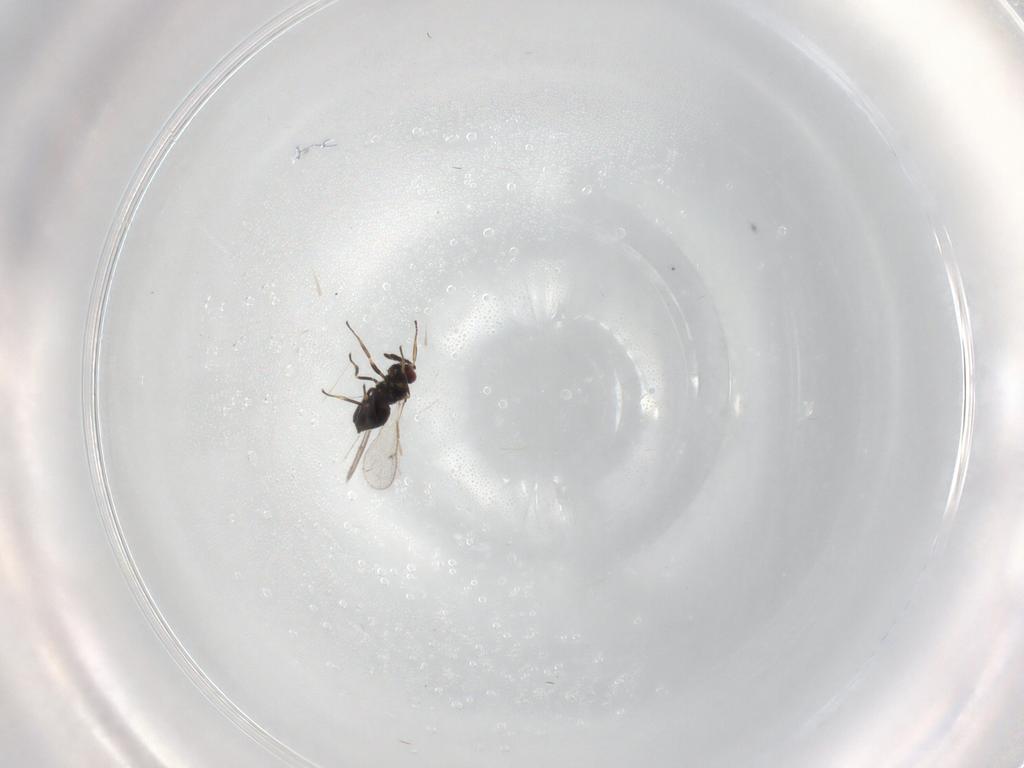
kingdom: Animalia
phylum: Arthropoda
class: Insecta
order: Hymenoptera
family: Tetracampidae
